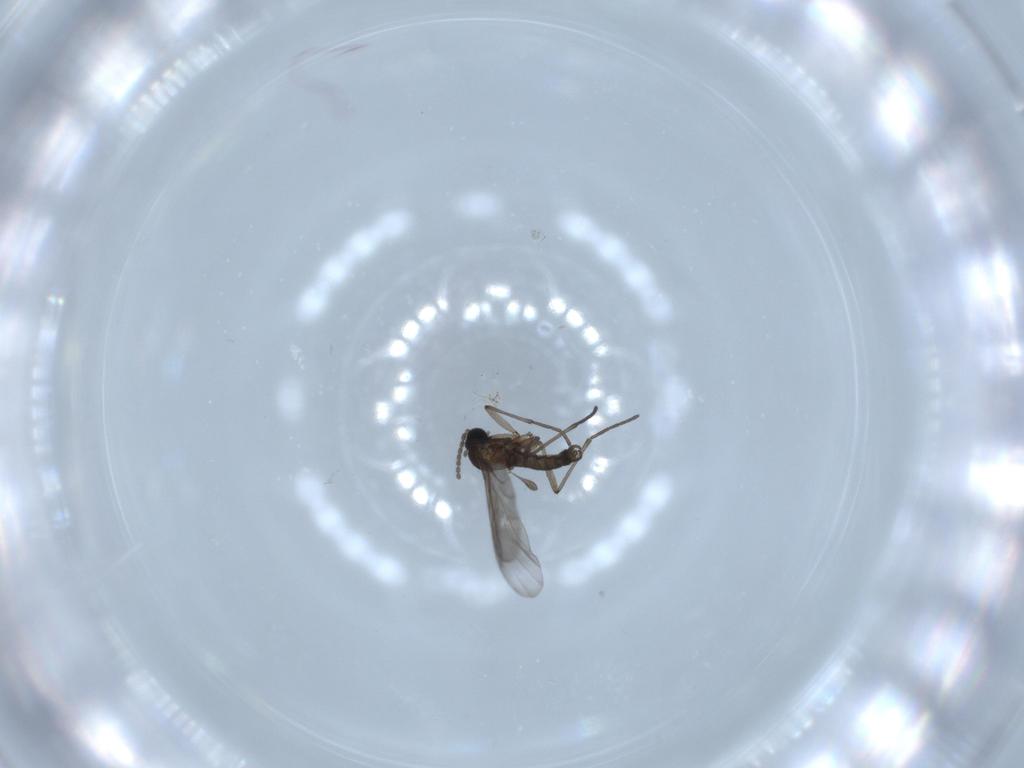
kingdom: Animalia
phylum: Arthropoda
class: Insecta
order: Diptera
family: Sciaridae
